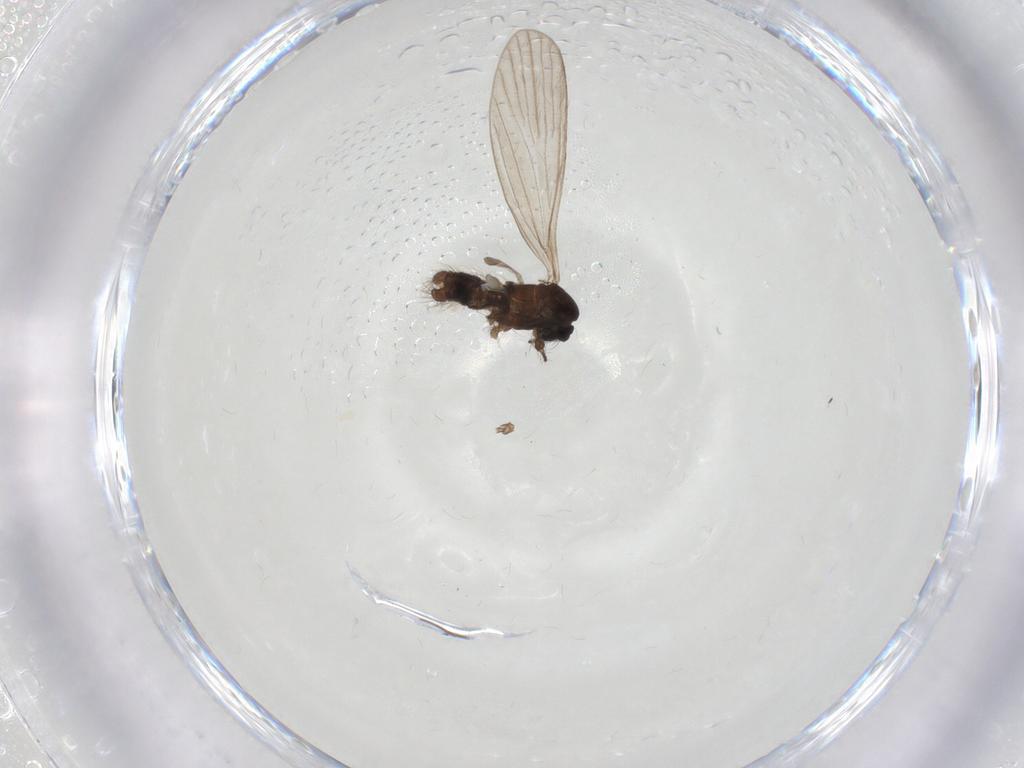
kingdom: Animalia
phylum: Arthropoda
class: Insecta
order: Diptera
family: Limoniidae
